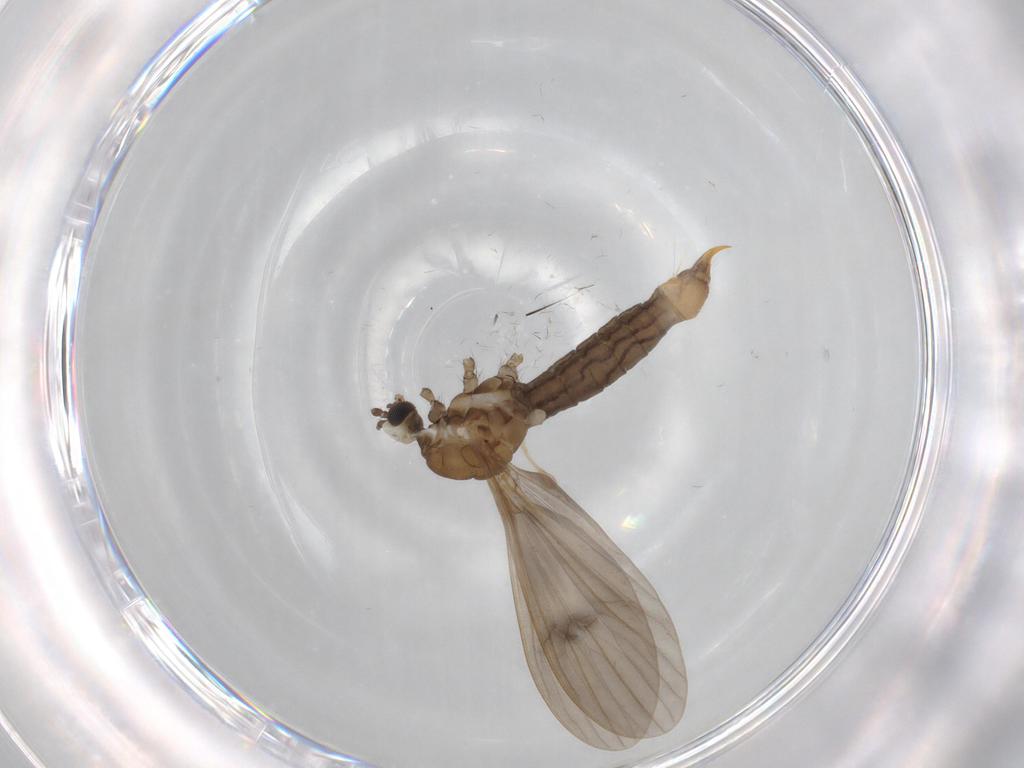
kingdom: Animalia
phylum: Arthropoda
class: Insecta
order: Diptera
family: Limoniidae
